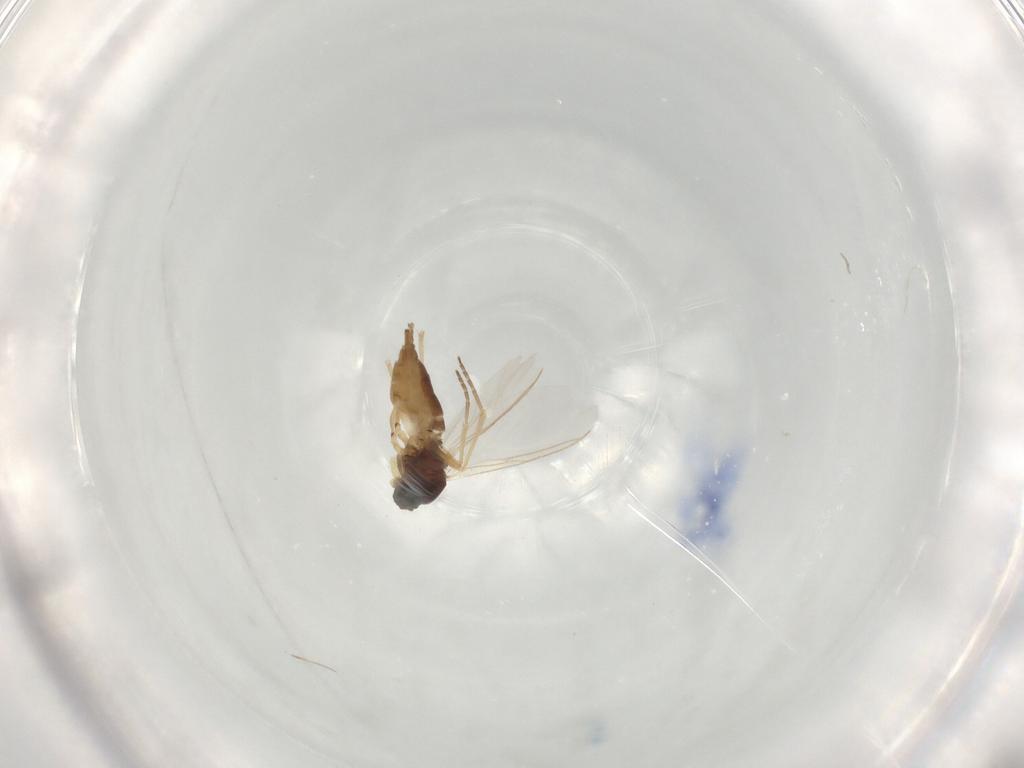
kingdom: Animalia
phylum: Arthropoda
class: Insecta
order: Diptera
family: Sciaridae
